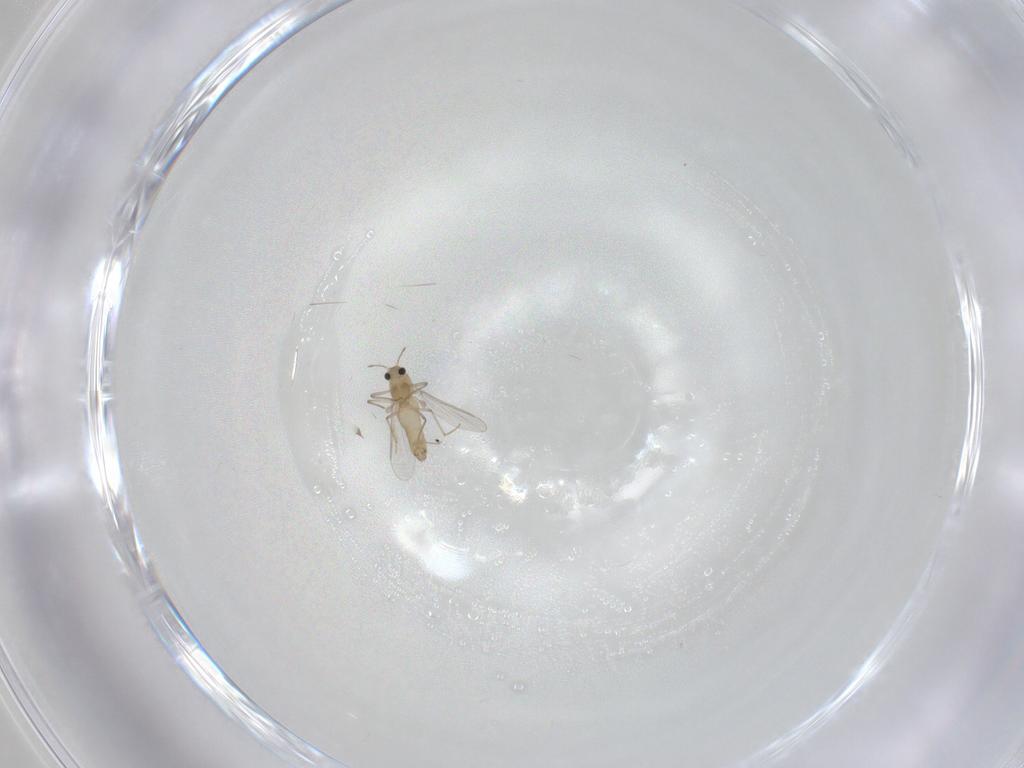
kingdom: Animalia
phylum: Arthropoda
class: Insecta
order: Diptera
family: Chironomidae
